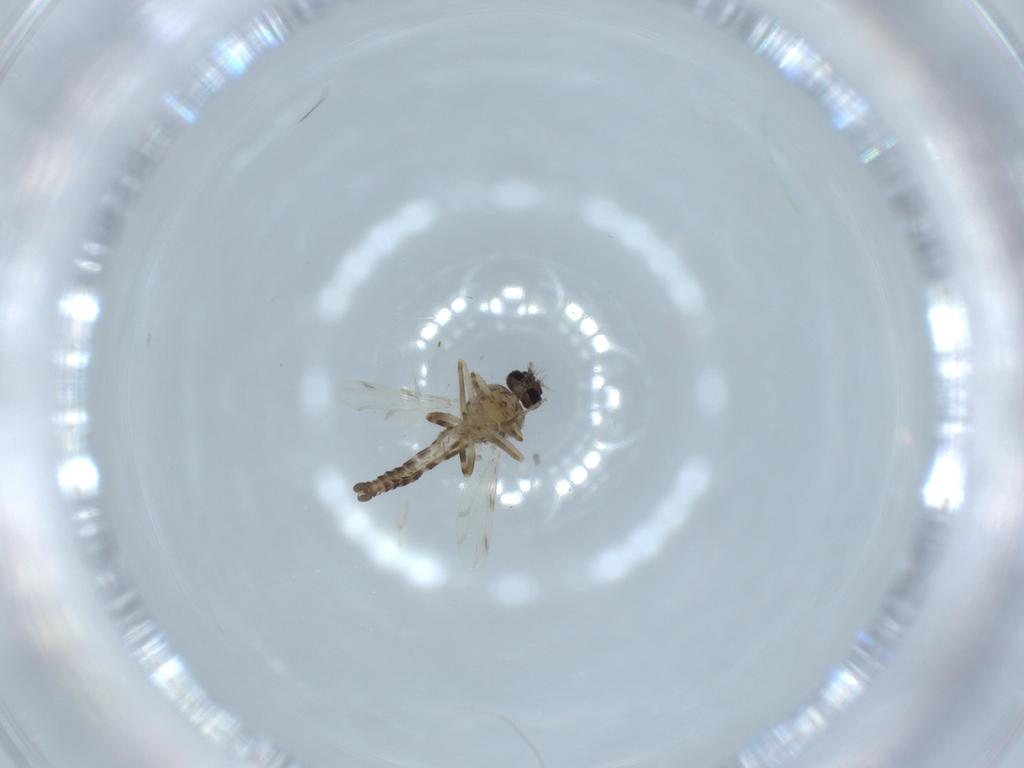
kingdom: Animalia
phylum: Arthropoda
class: Insecta
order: Diptera
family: Ceratopogonidae
